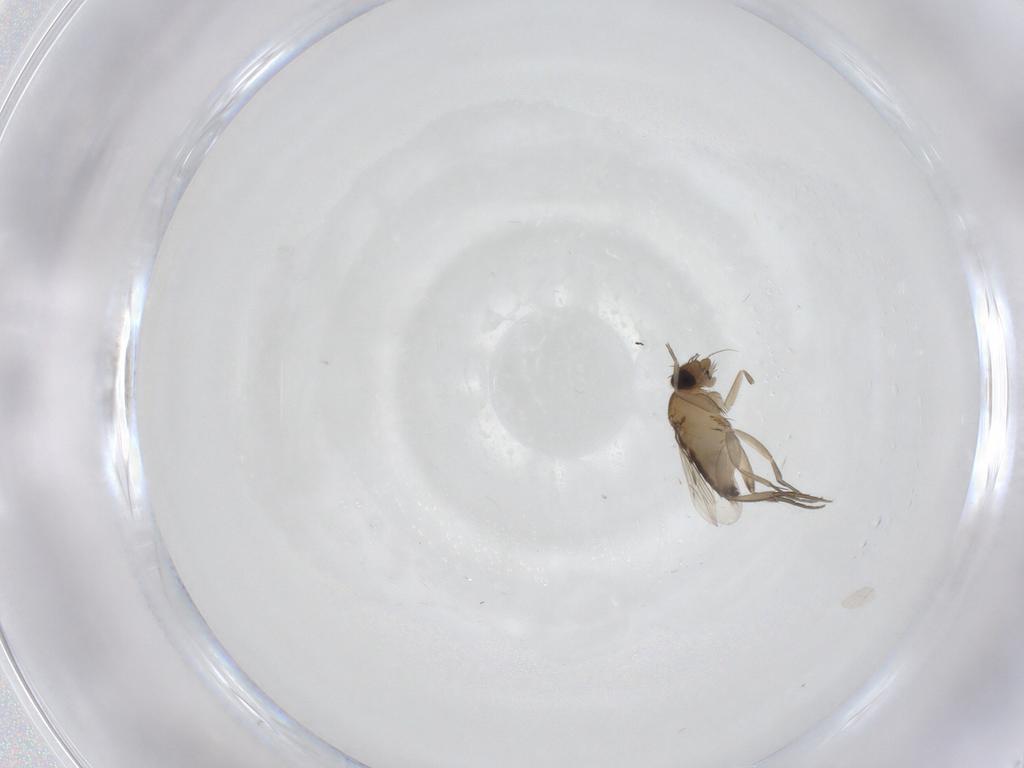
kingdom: Animalia
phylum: Arthropoda
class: Insecta
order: Diptera
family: Phoridae
